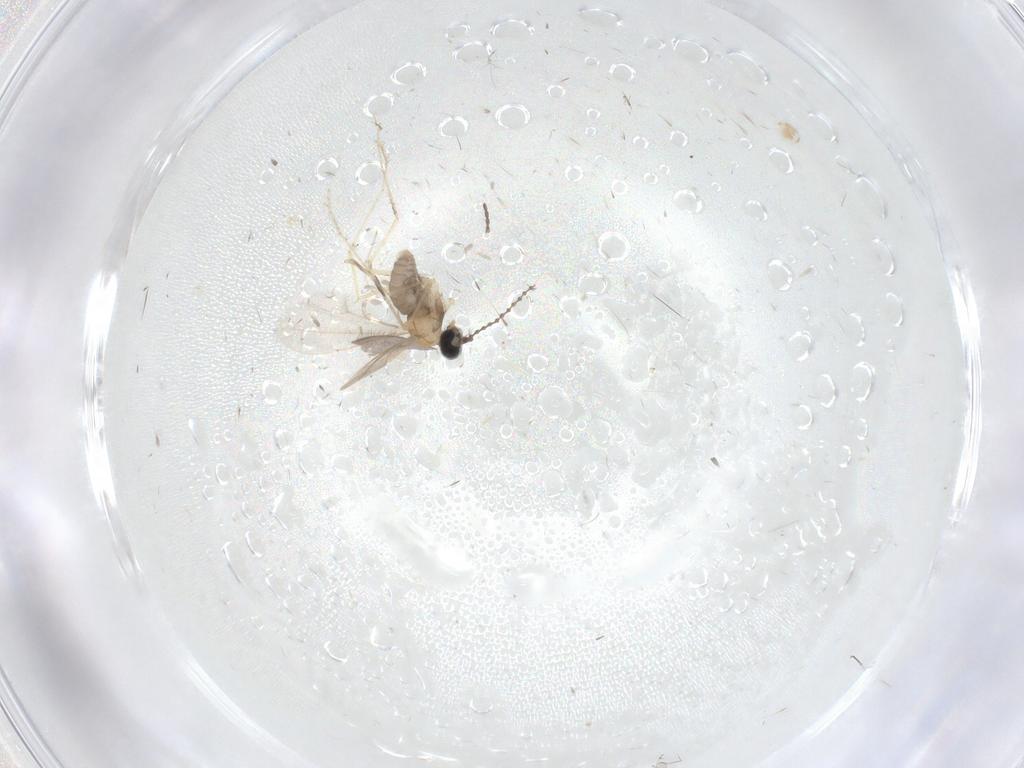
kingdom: Animalia
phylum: Arthropoda
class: Insecta
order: Diptera
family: Cecidomyiidae
